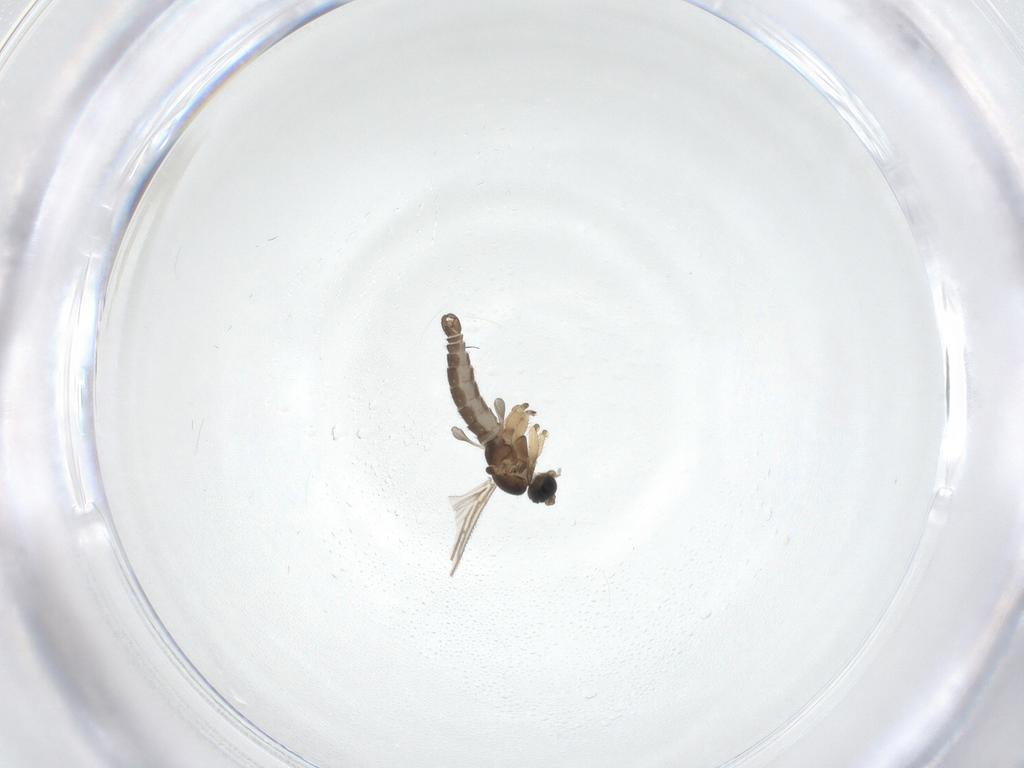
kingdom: Animalia
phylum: Arthropoda
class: Insecta
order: Diptera
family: Sciaridae
